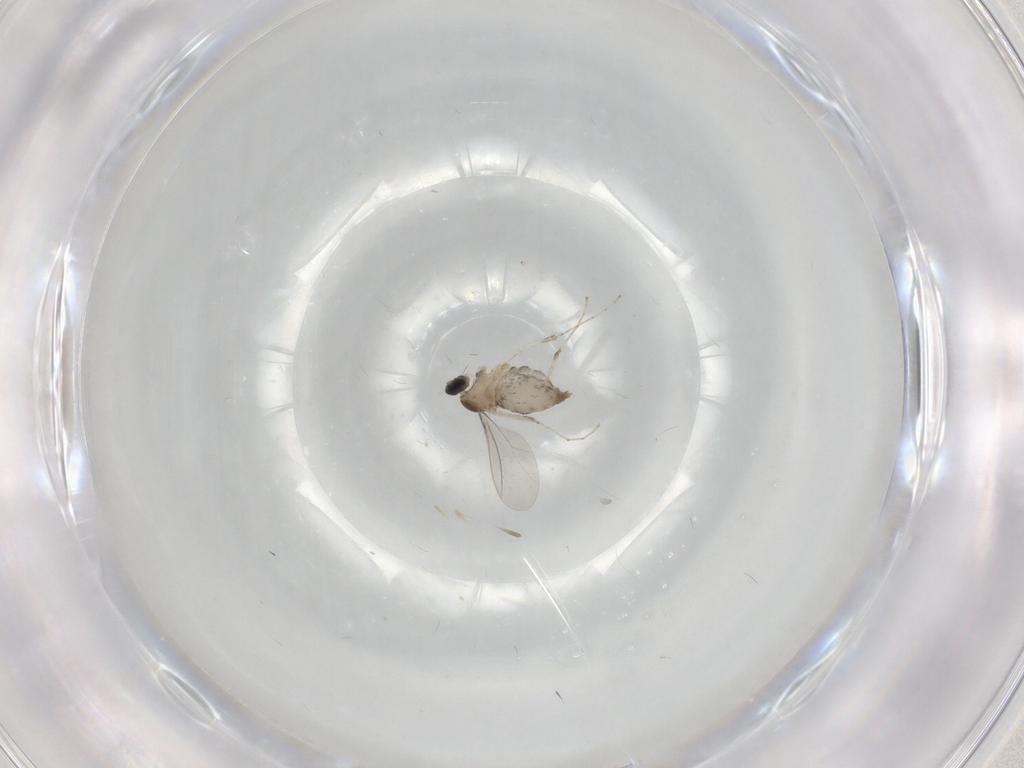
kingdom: Animalia
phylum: Arthropoda
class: Insecta
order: Diptera
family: Cecidomyiidae
